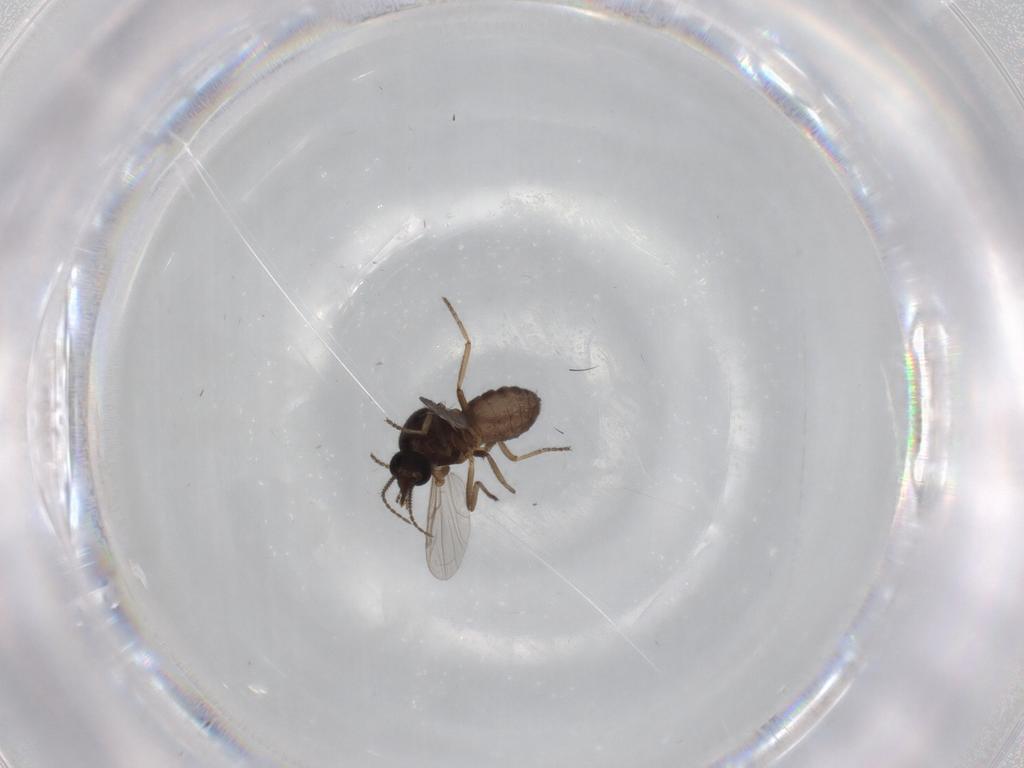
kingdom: Animalia
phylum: Arthropoda
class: Insecta
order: Diptera
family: Ceratopogonidae
